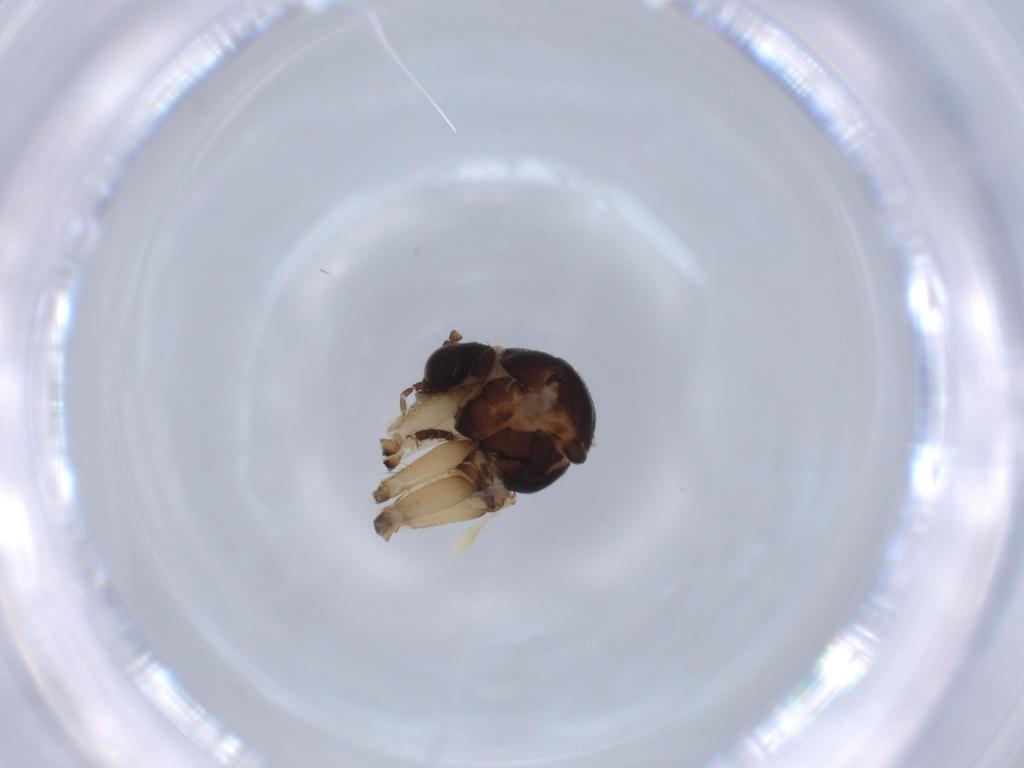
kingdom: Animalia
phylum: Arthropoda
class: Insecta
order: Diptera
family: Mycetophilidae
